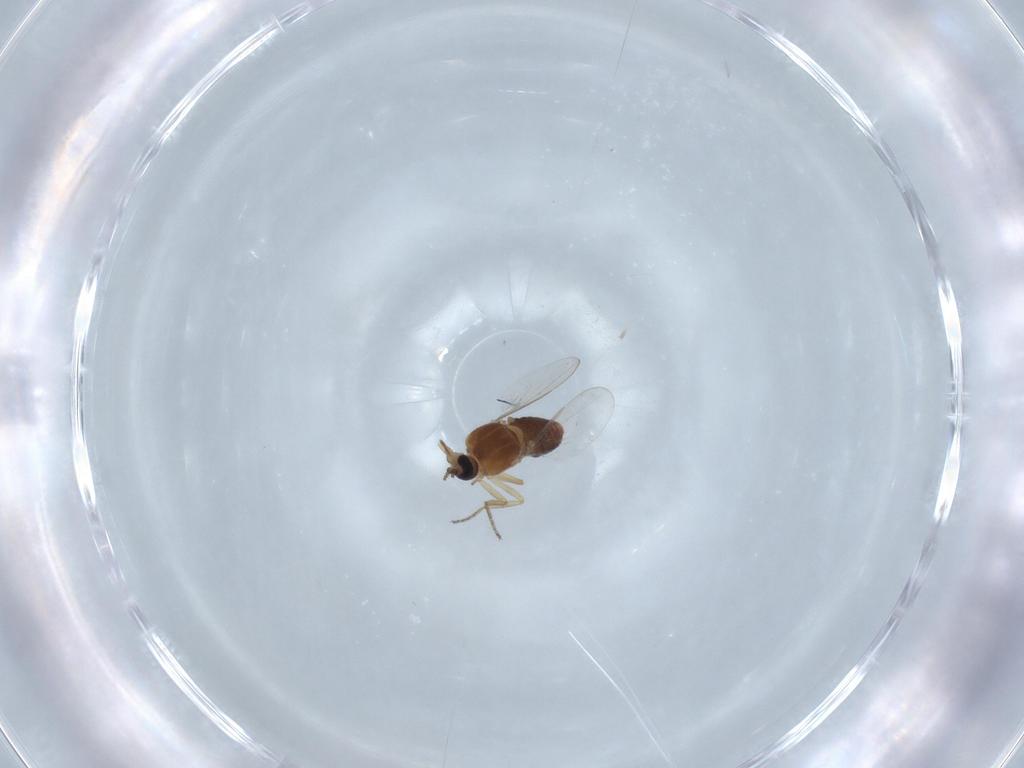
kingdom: Animalia
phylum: Arthropoda
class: Insecta
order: Diptera
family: Ceratopogonidae
